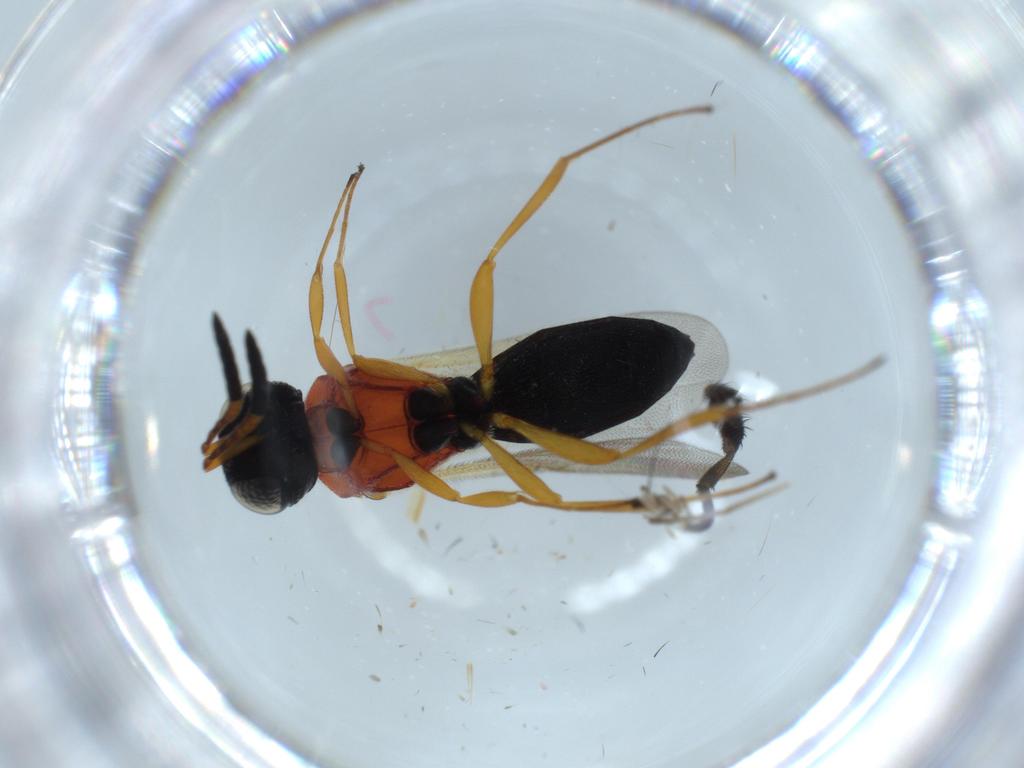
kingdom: Animalia
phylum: Arthropoda
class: Insecta
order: Hymenoptera
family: Scelionidae
